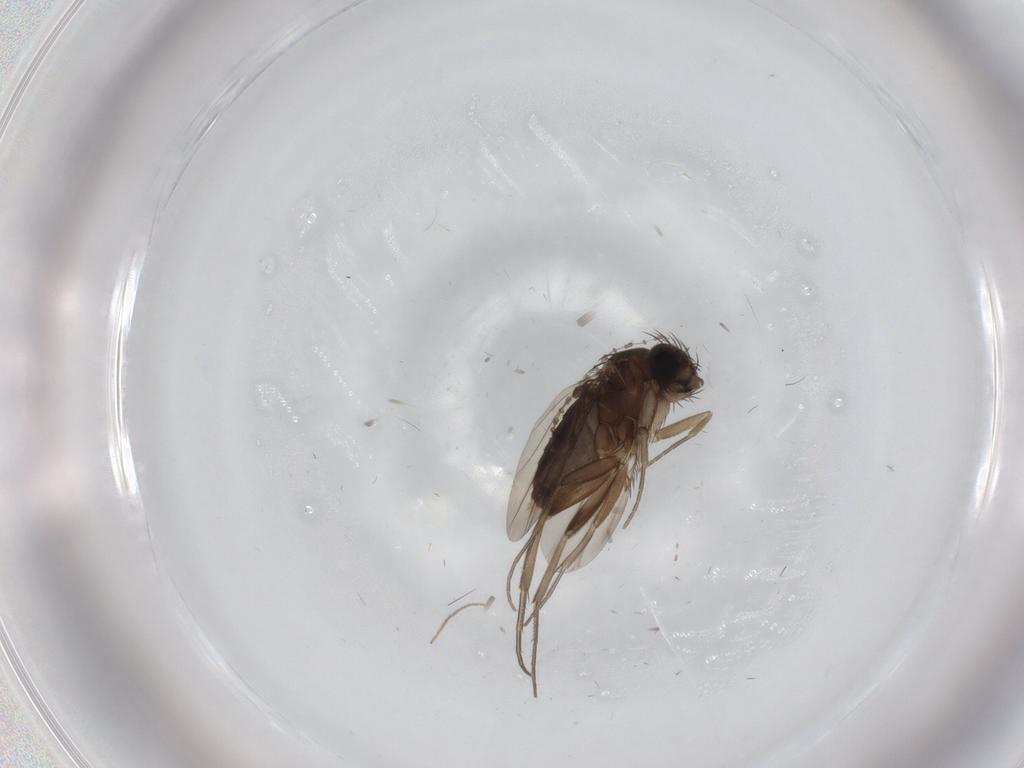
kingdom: Animalia
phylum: Arthropoda
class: Insecta
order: Diptera
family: Phoridae
